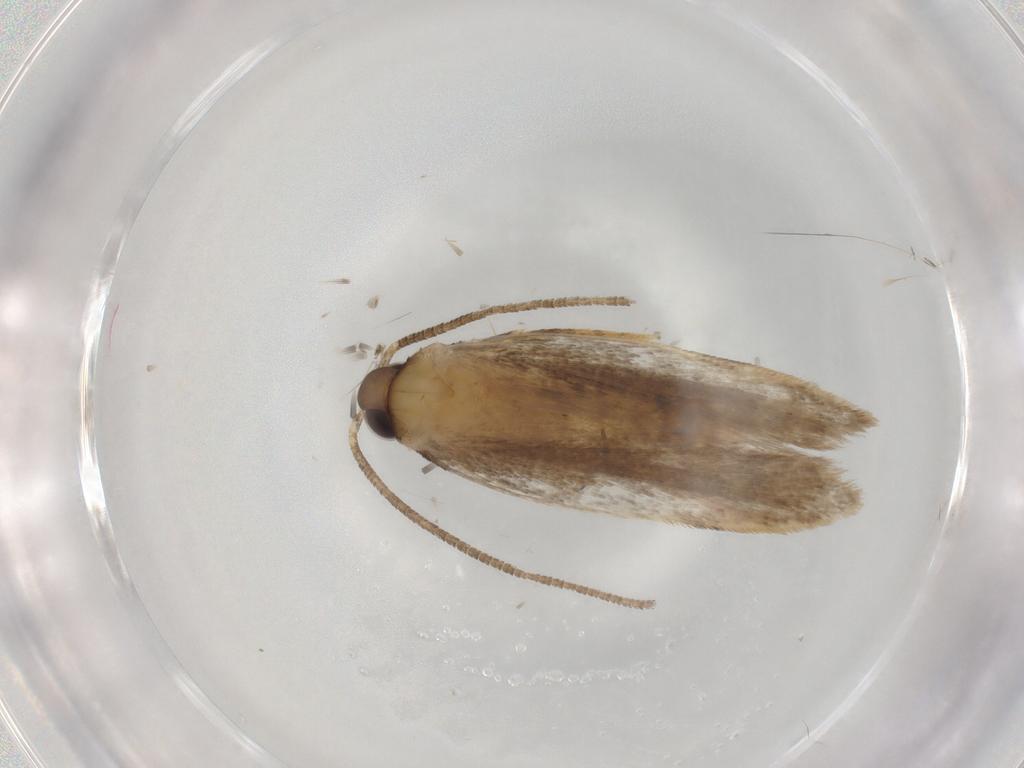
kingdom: Animalia
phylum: Arthropoda
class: Insecta
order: Lepidoptera
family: Autostichidae
